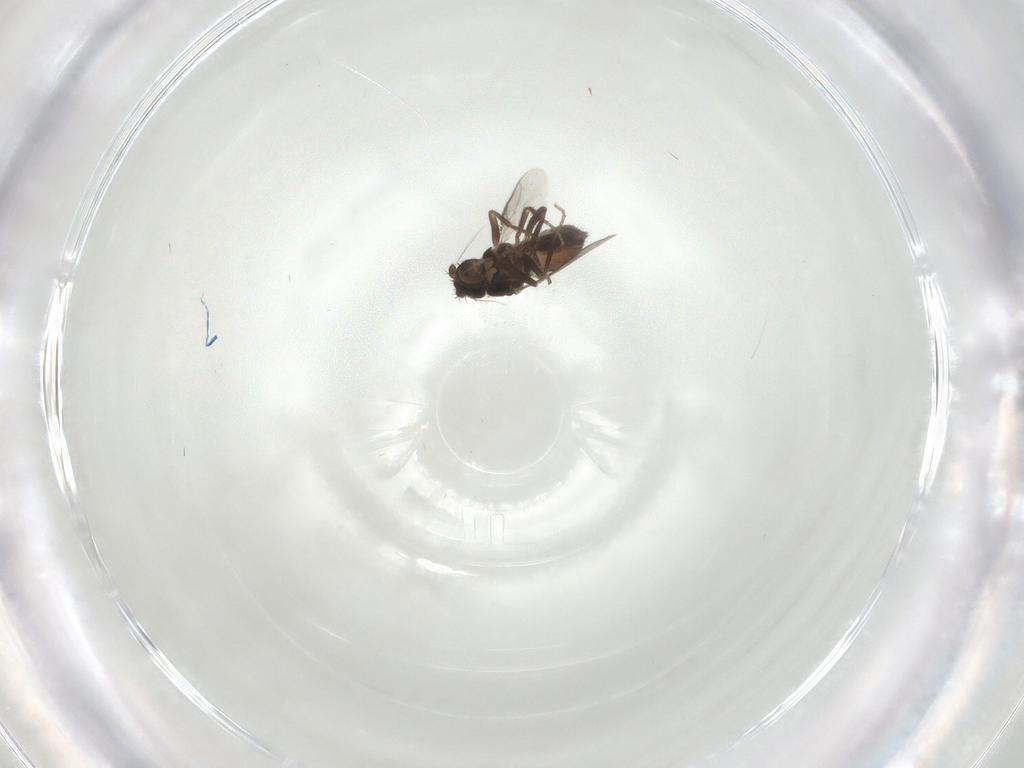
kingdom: Animalia
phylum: Arthropoda
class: Insecta
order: Diptera
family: Sphaeroceridae
